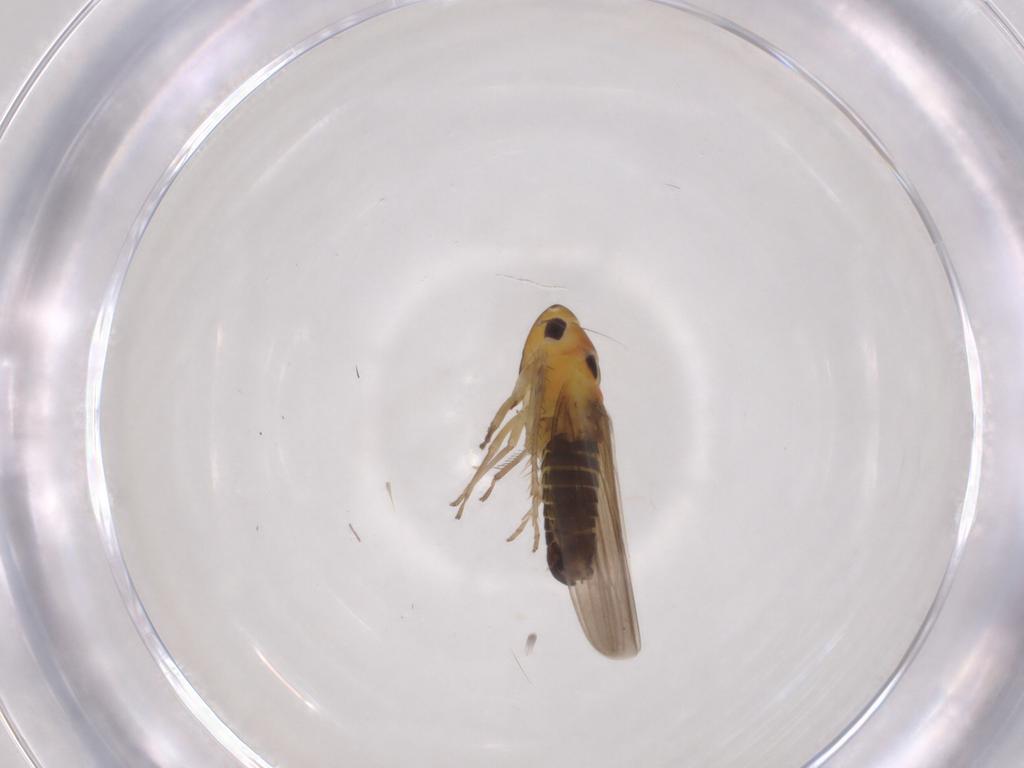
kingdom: Animalia
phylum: Arthropoda
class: Insecta
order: Hemiptera
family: Cicadellidae
